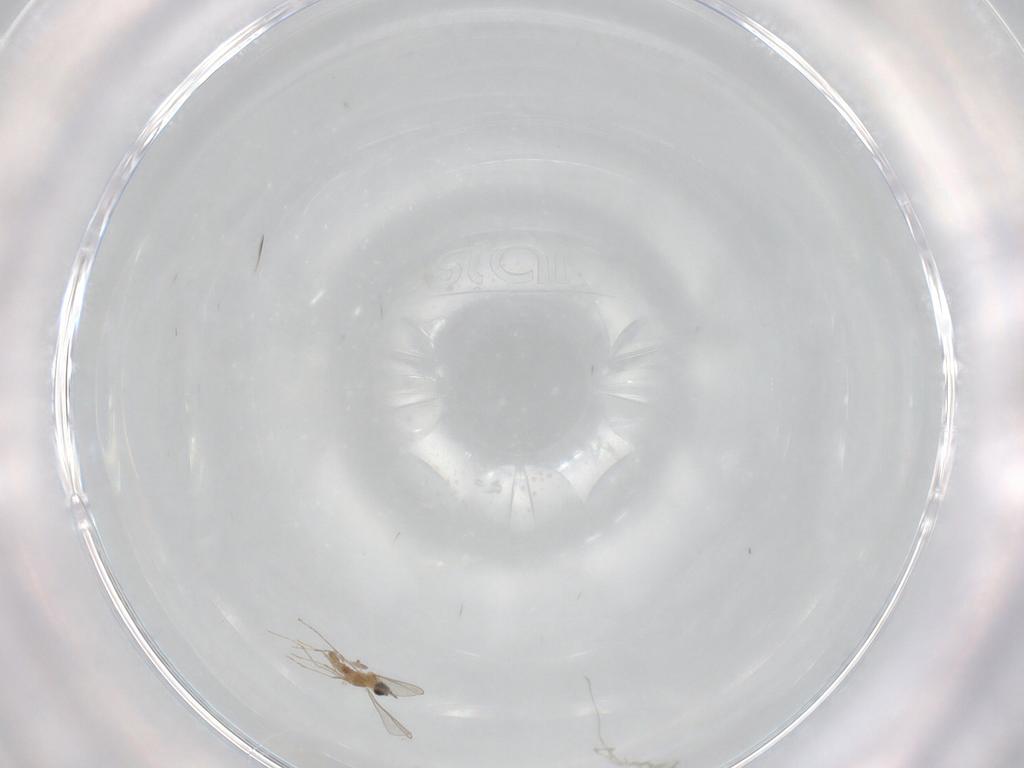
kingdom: Animalia
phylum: Arthropoda
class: Insecta
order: Diptera
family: Cecidomyiidae
